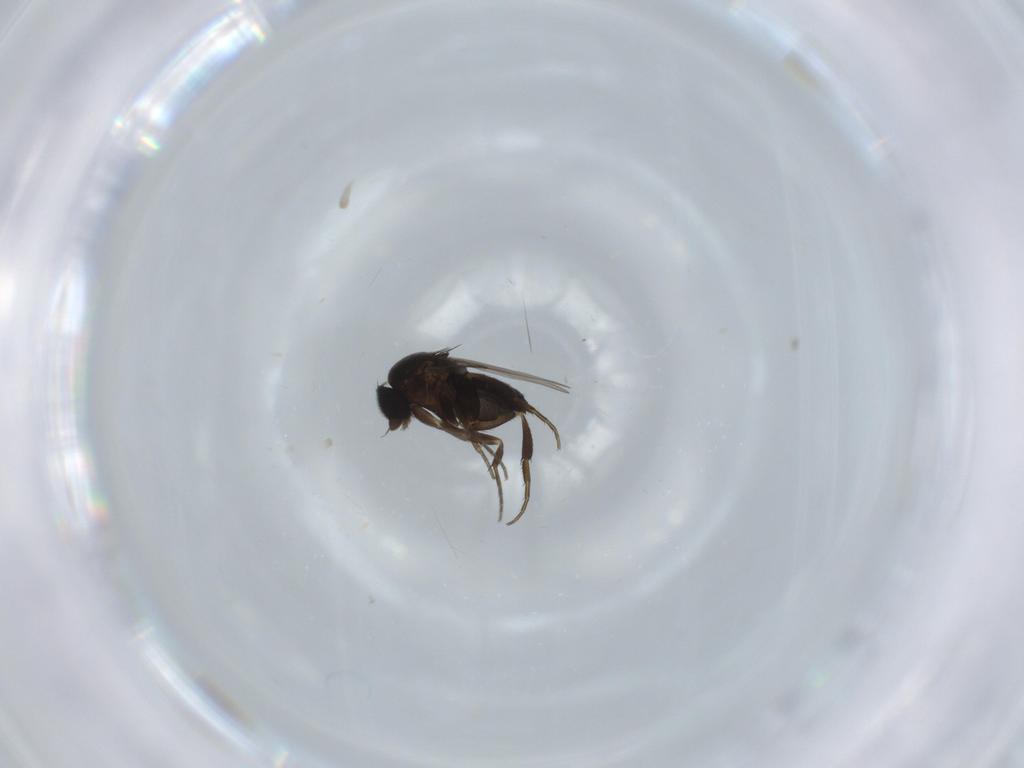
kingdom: Animalia
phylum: Arthropoda
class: Insecta
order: Diptera
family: Phoridae
